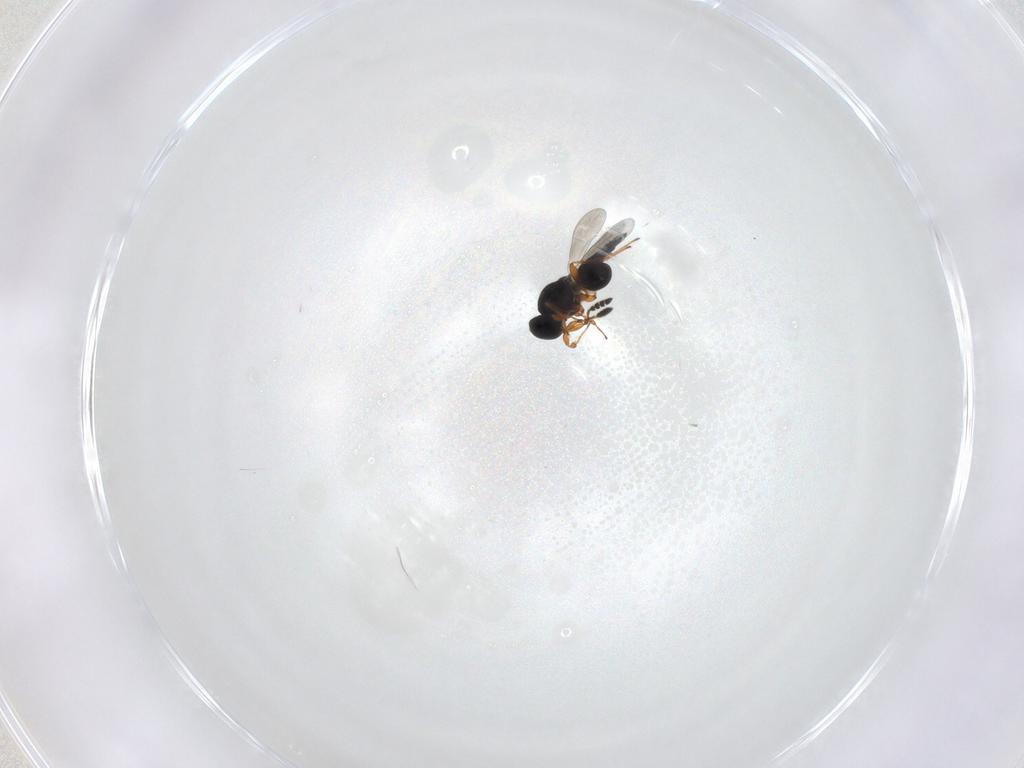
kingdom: Animalia
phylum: Arthropoda
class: Insecta
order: Hymenoptera
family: Platygastridae
